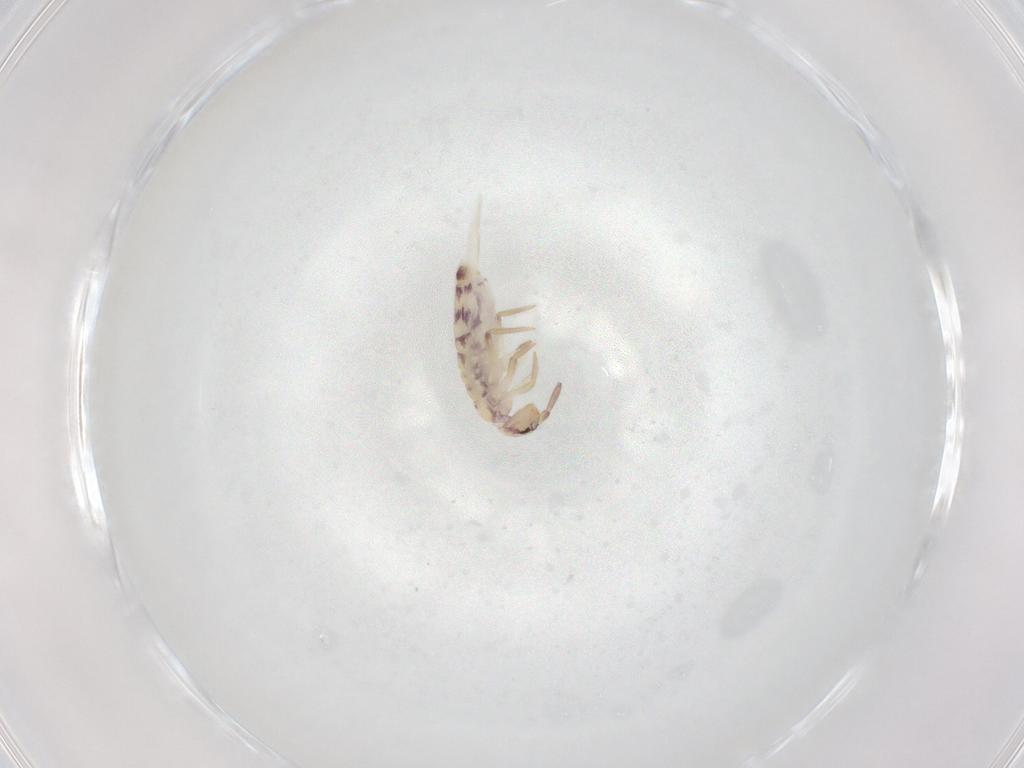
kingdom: Animalia
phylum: Arthropoda
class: Collembola
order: Entomobryomorpha
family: Entomobryidae
